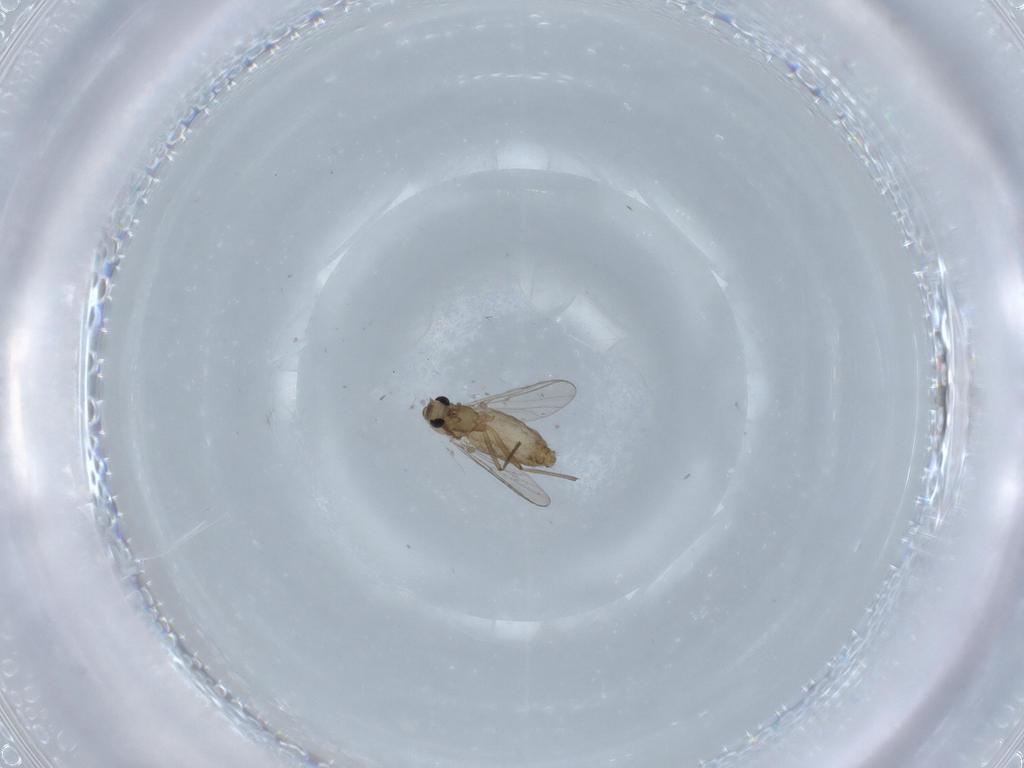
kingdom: Animalia
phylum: Arthropoda
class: Insecta
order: Diptera
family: Chironomidae
